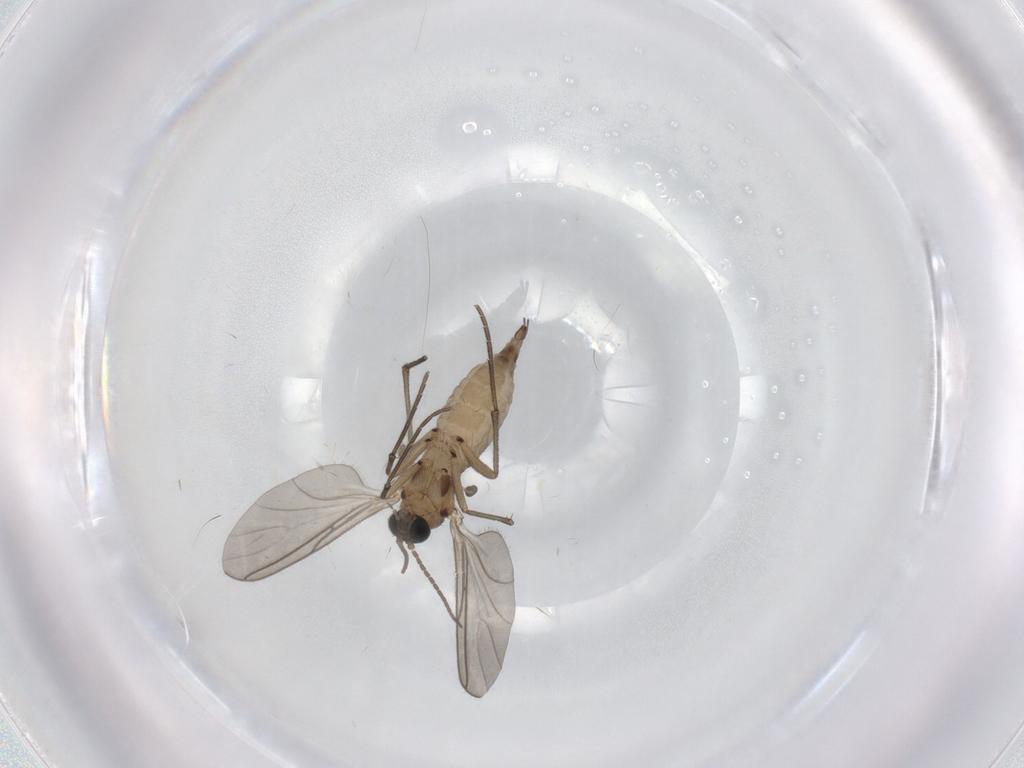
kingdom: Animalia
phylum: Arthropoda
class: Insecta
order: Diptera
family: Sciaridae
